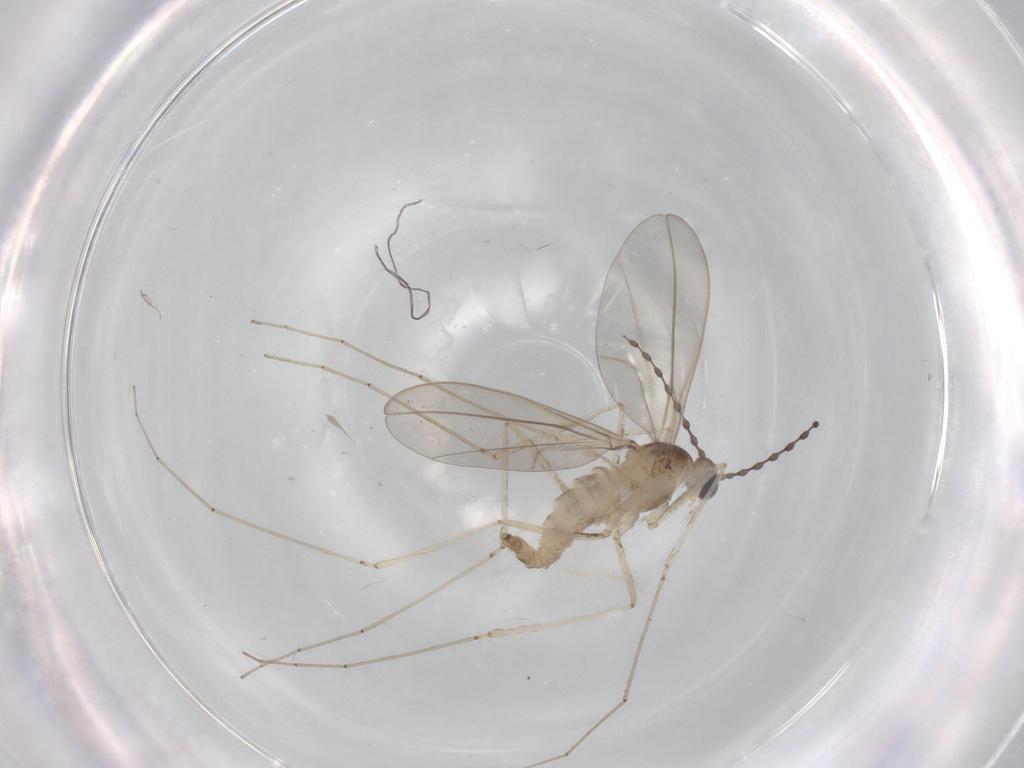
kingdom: Animalia
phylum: Arthropoda
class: Insecta
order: Diptera
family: Cecidomyiidae
